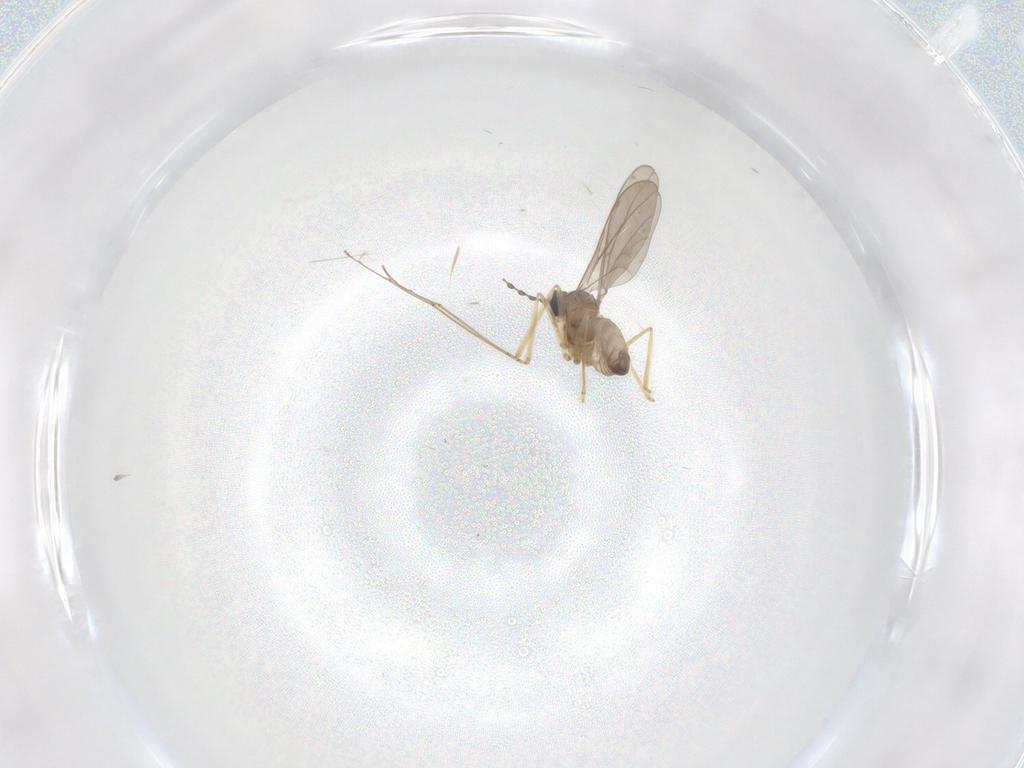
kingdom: Animalia
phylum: Arthropoda
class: Insecta
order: Diptera
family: Cecidomyiidae
